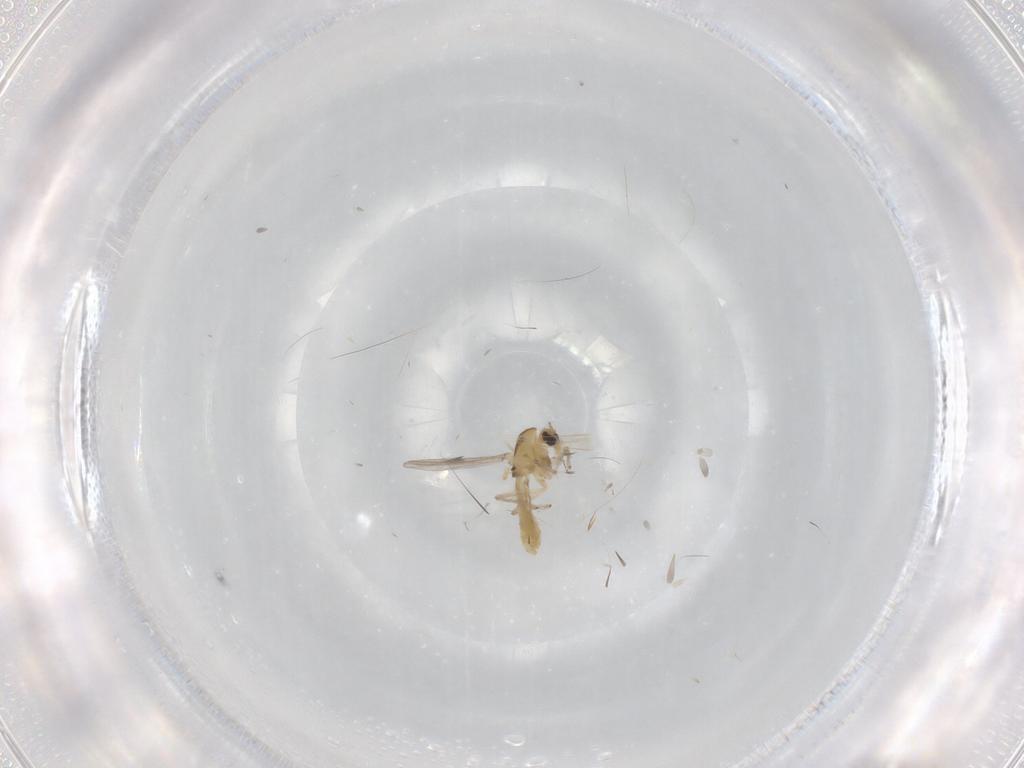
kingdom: Animalia
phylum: Arthropoda
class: Insecta
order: Diptera
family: Chironomidae
